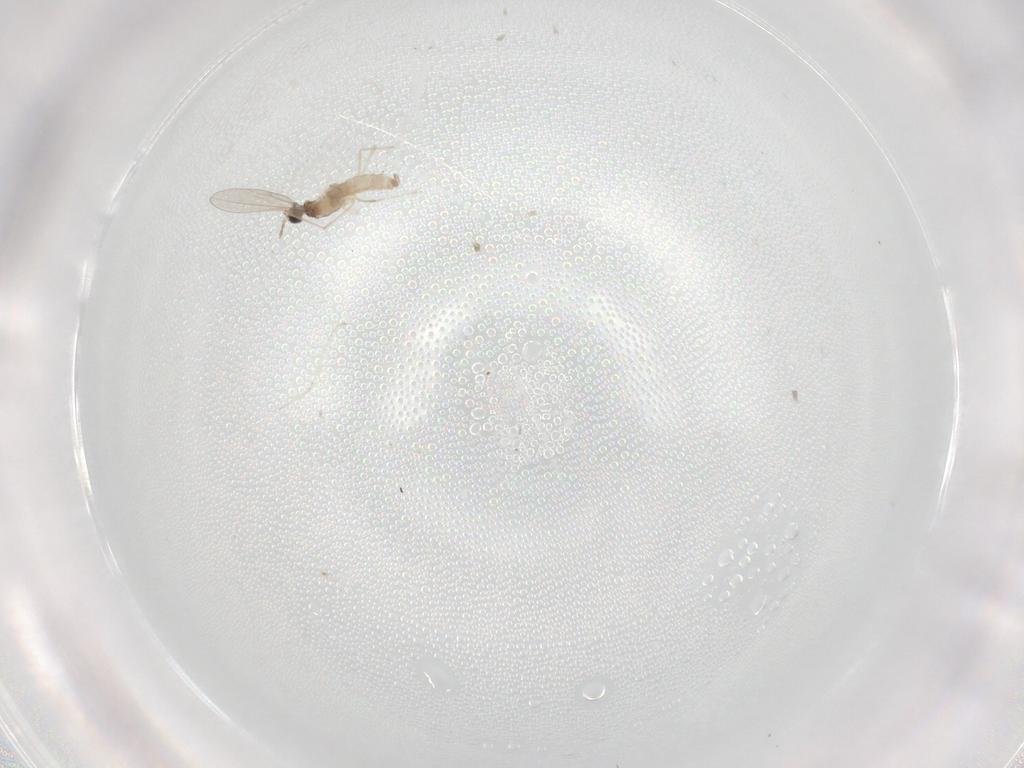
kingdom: Animalia
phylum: Arthropoda
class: Insecta
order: Diptera
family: Cecidomyiidae
